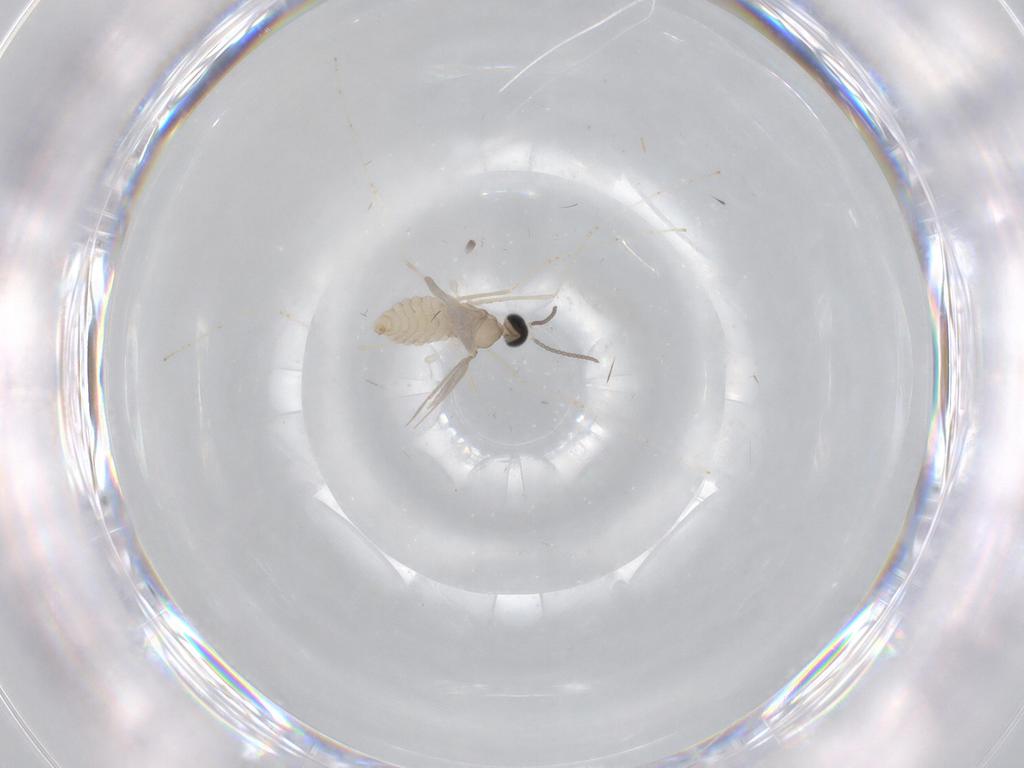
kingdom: Animalia
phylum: Arthropoda
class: Insecta
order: Diptera
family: Cecidomyiidae
